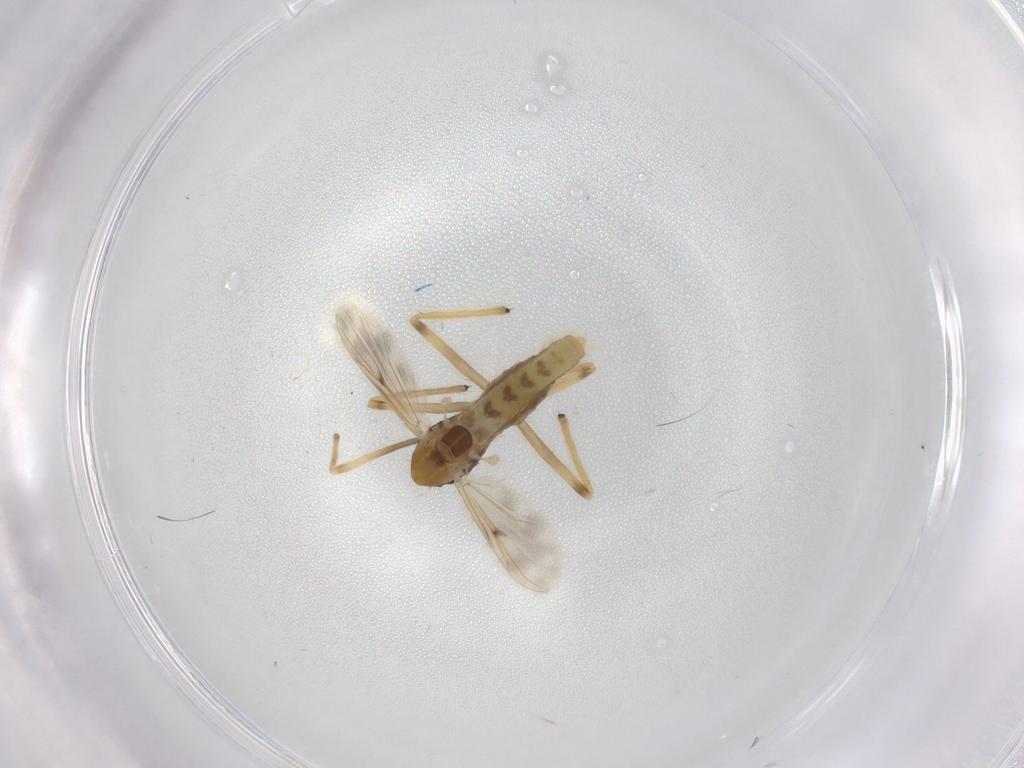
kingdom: Animalia
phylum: Arthropoda
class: Insecta
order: Diptera
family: Chironomidae
